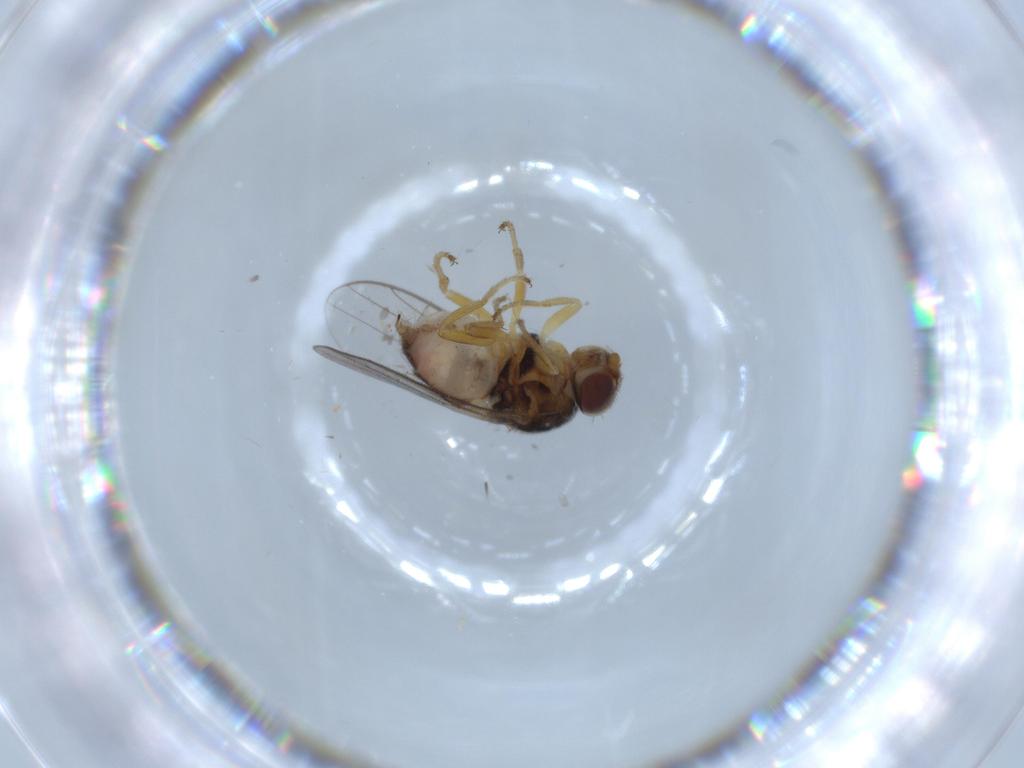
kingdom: Animalia
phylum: Arthropoda
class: Insecta
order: Diptera
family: Chloropidae
